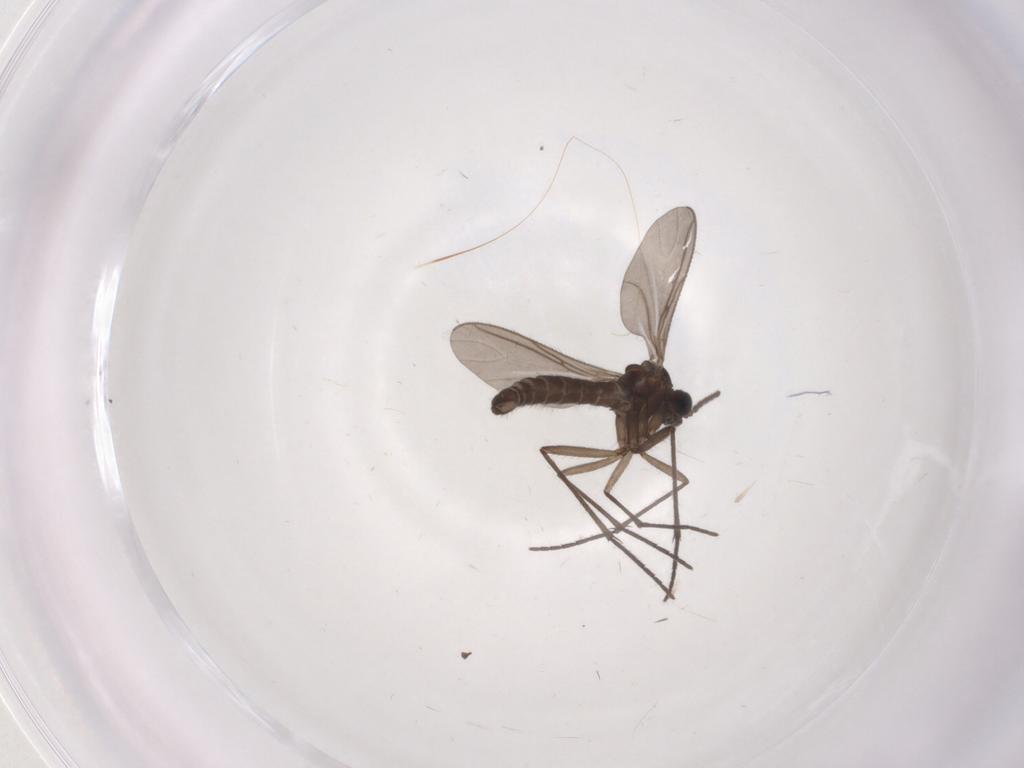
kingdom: Animalia
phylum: Arthropoda
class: Insecta
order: Diptera
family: Sciaridae
